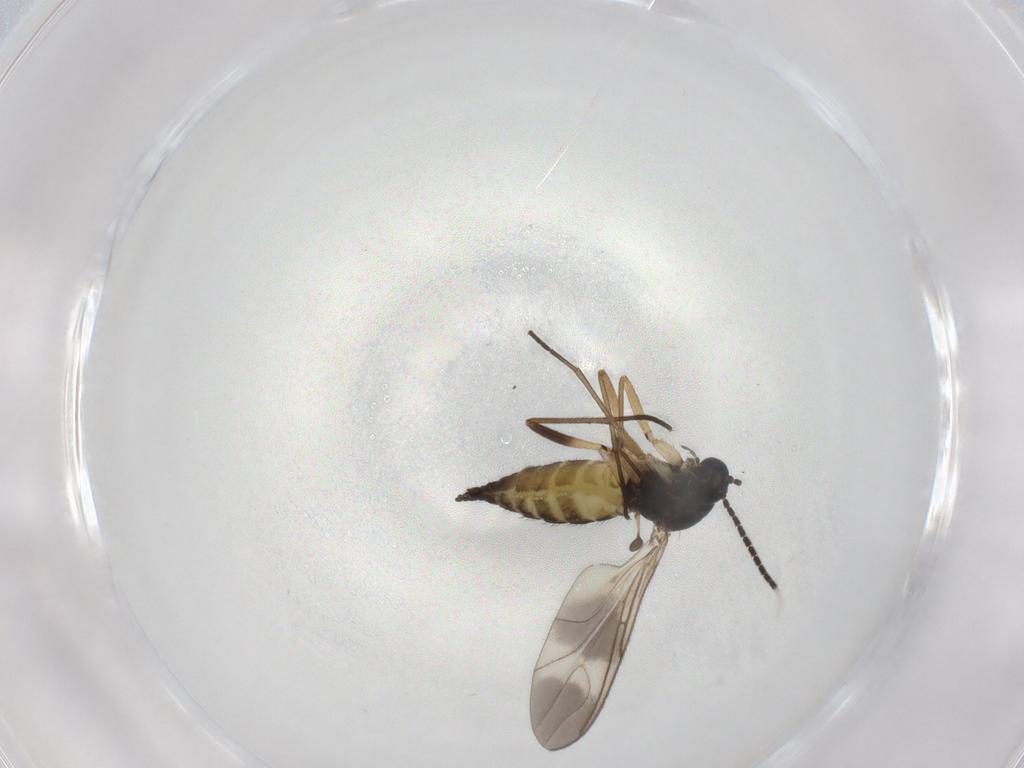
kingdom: Animalia
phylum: Arthropoda
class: Insecta
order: Diptera
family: Sciaridae
